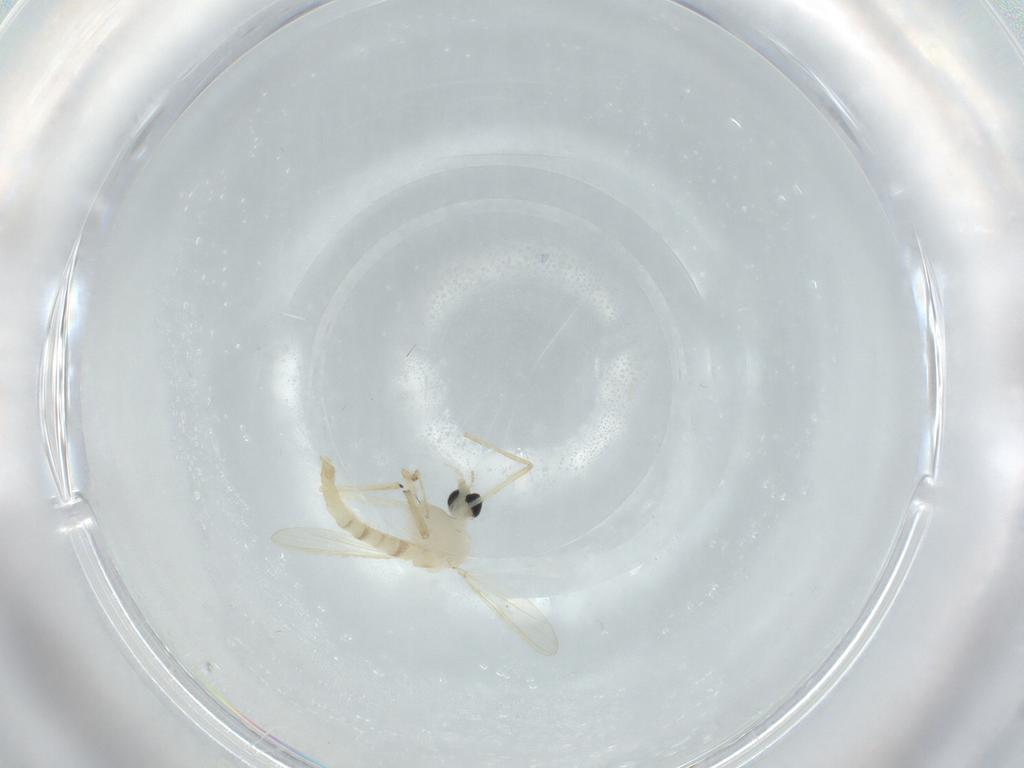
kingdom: Animalia
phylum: Arthropoda
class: Insecta
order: Diptera
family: Chironomidae
